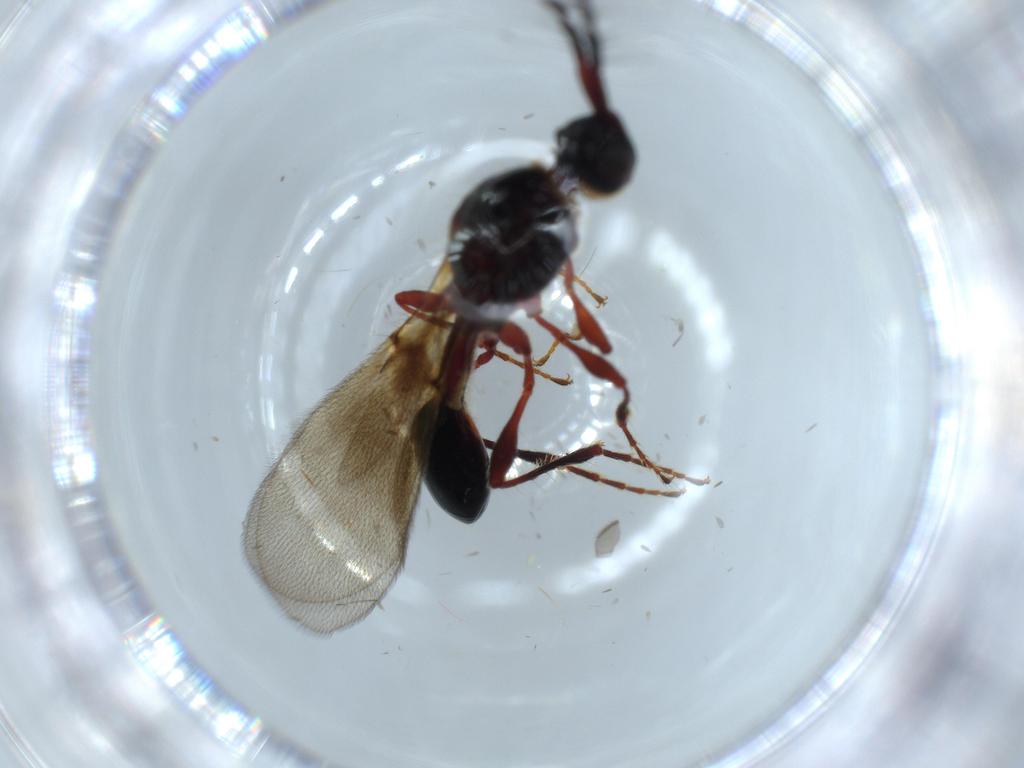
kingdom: Animalia
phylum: Arthropoda
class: Insecta
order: Hymenoptera
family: Diapriidae
